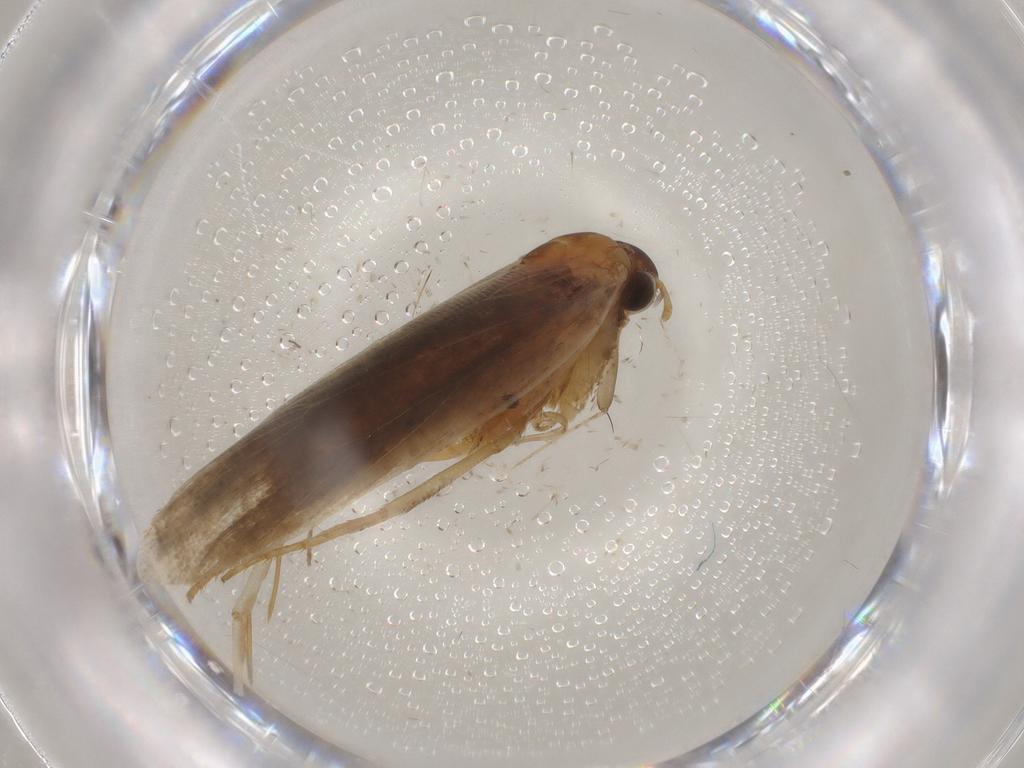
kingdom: Animalia
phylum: Arthropoda
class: Insecta
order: Lepidoptera
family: Gelechiidae
